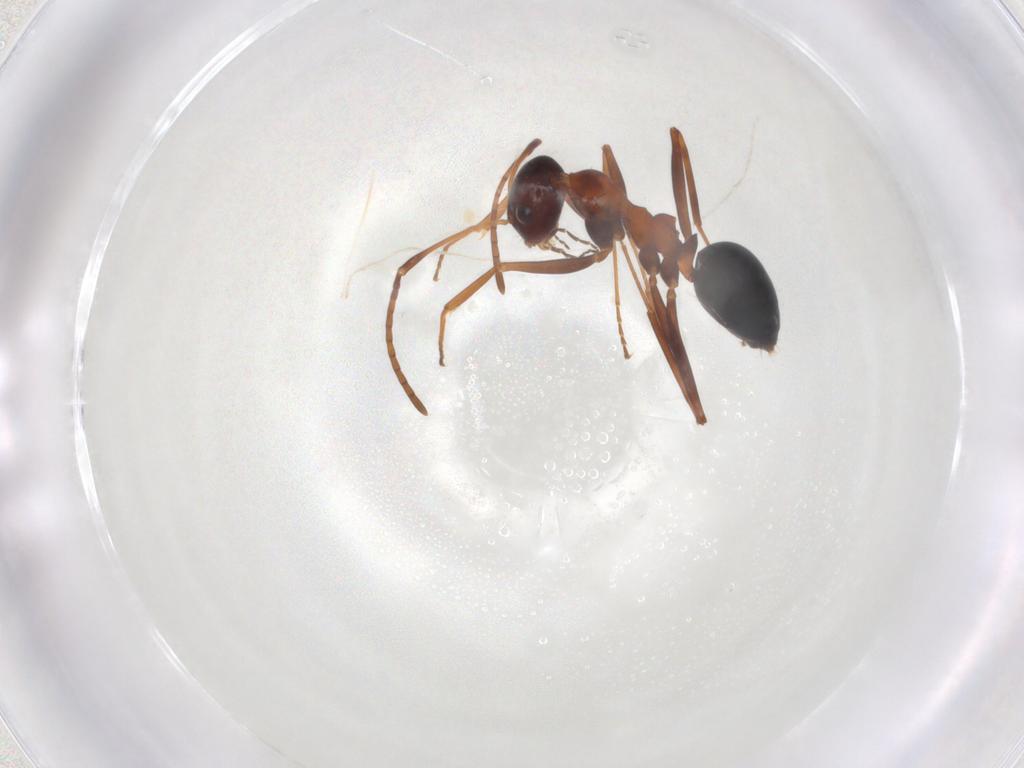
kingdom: Animalia
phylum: Arthropoda
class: Insecta
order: Hymenoptera
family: Formicidae
